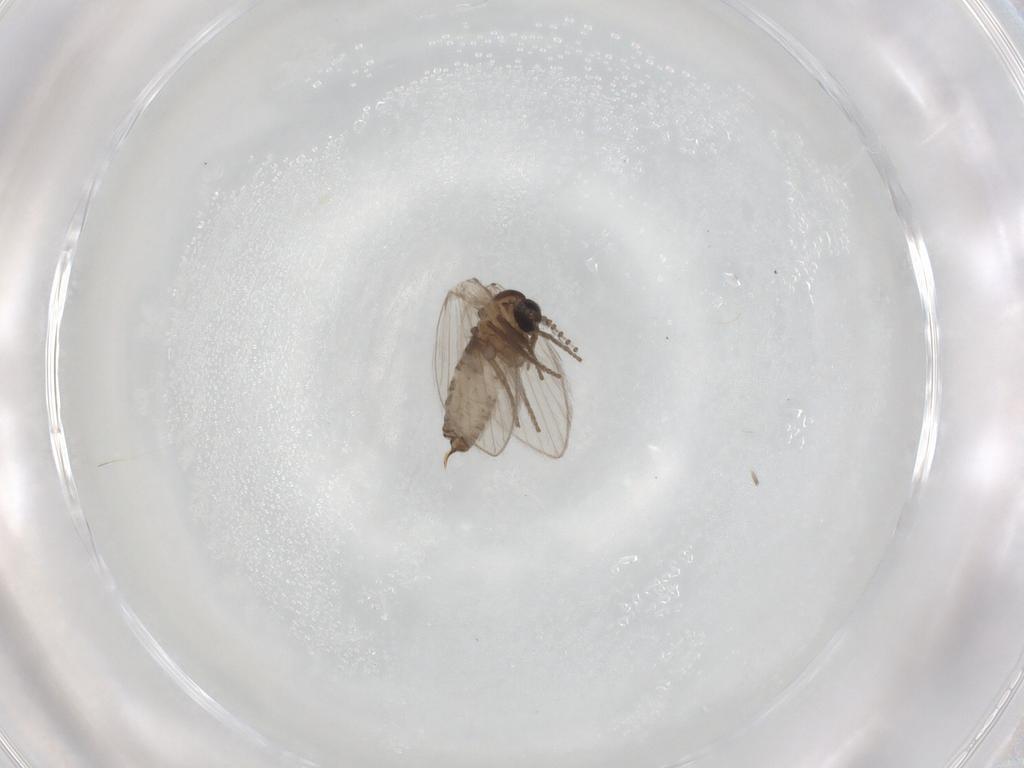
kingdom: Animalia
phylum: Arthropoda
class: Insecta
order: Diptera
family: Psychodidae
